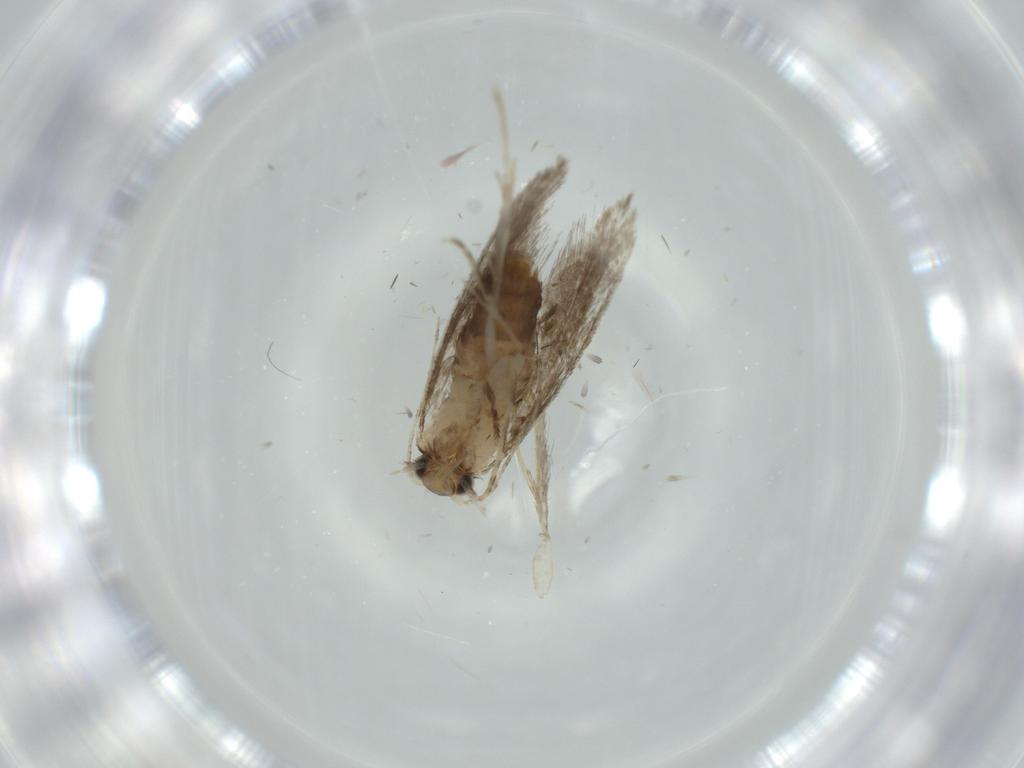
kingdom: Animalia
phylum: Arthropoda
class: Insecta
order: Lepidoptera
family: Tineidae
